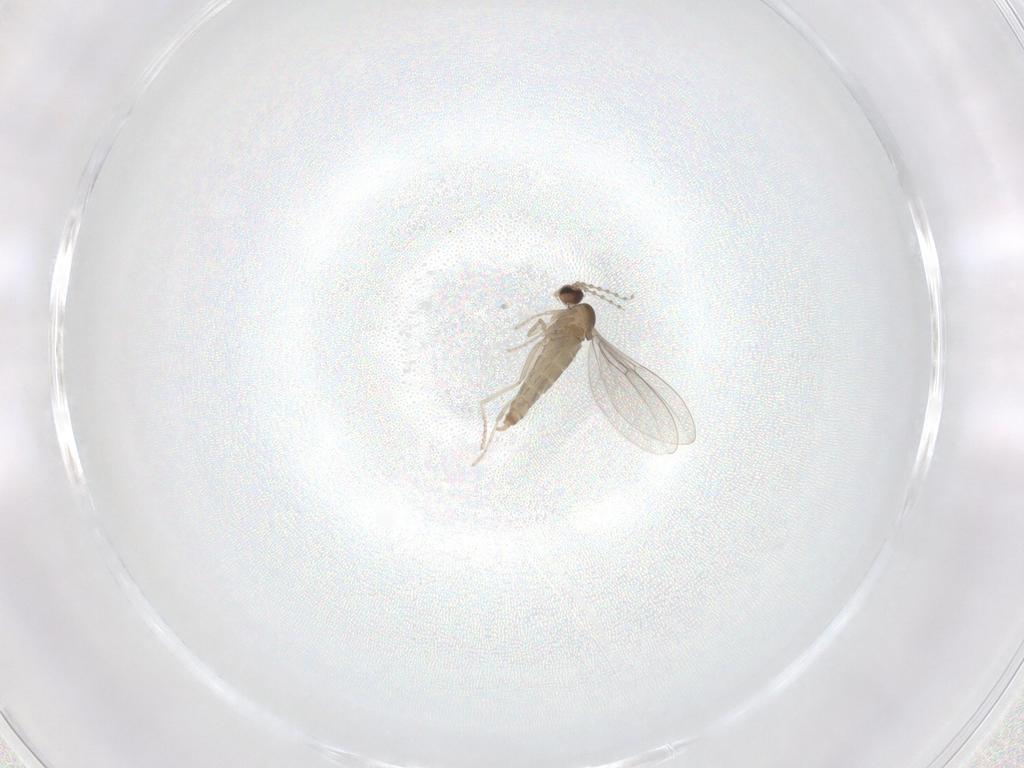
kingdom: Animalia
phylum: Arthropoda
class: Insecta
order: Diptera
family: Cecidomyiidae
